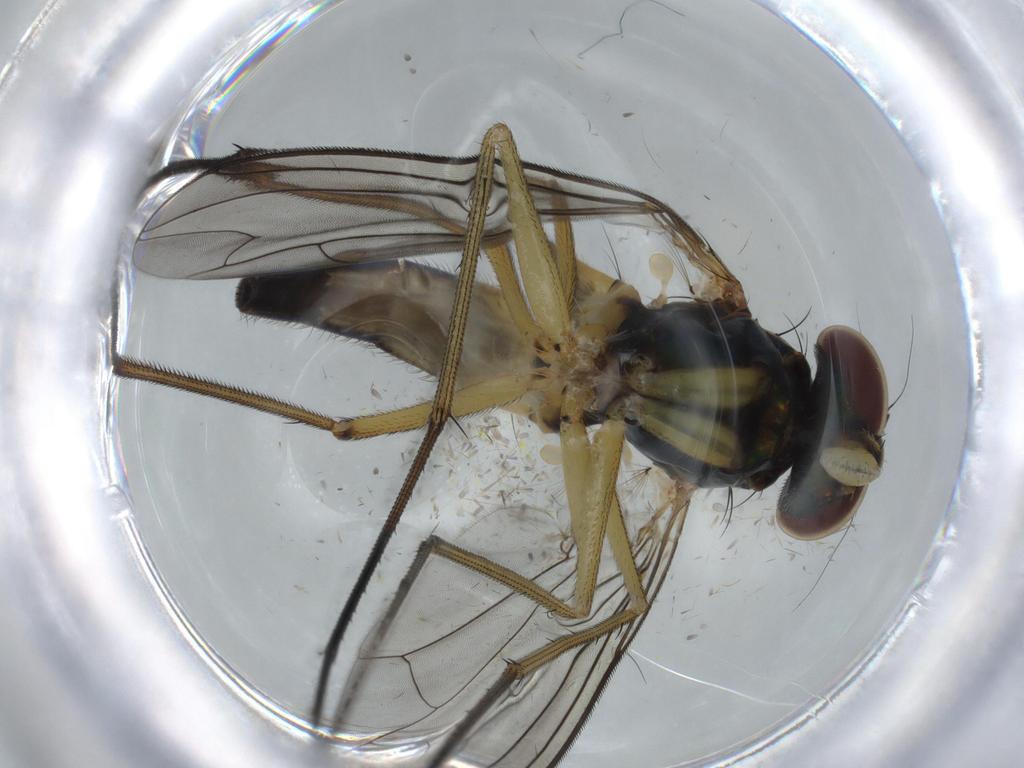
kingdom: Animalia
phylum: Arthropoda
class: Insecta
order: Diptera
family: Dolichopodidae
